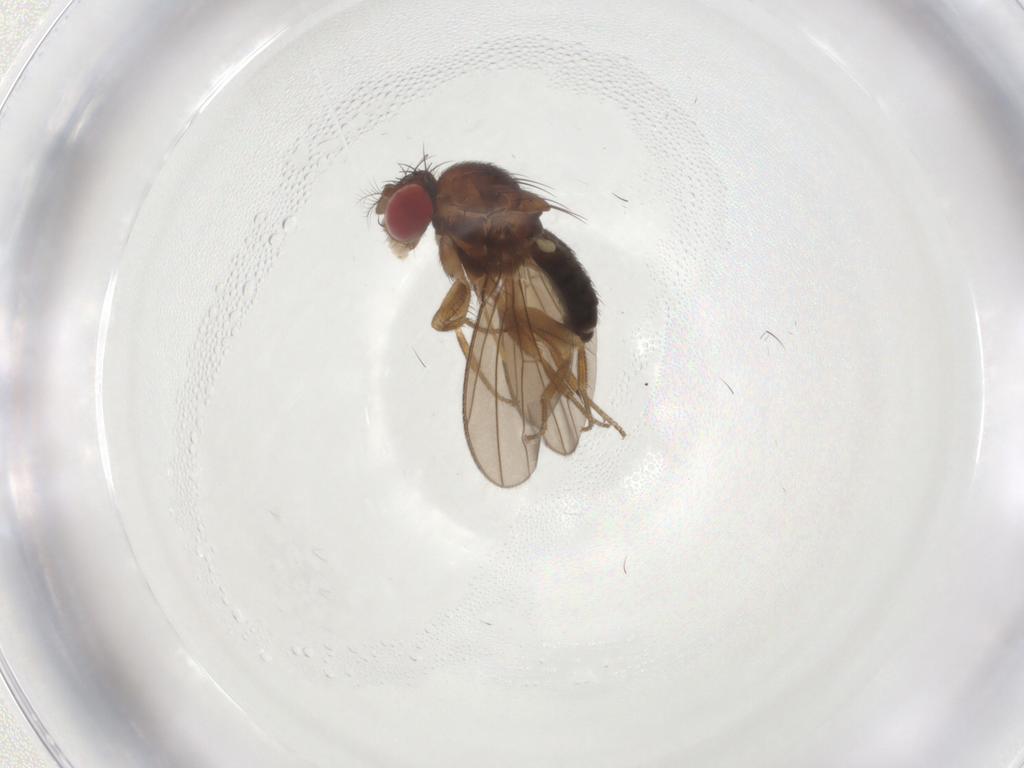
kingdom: Animalia
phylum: Arthropoda
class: Insecta
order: Diptera
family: Drosophilidae
